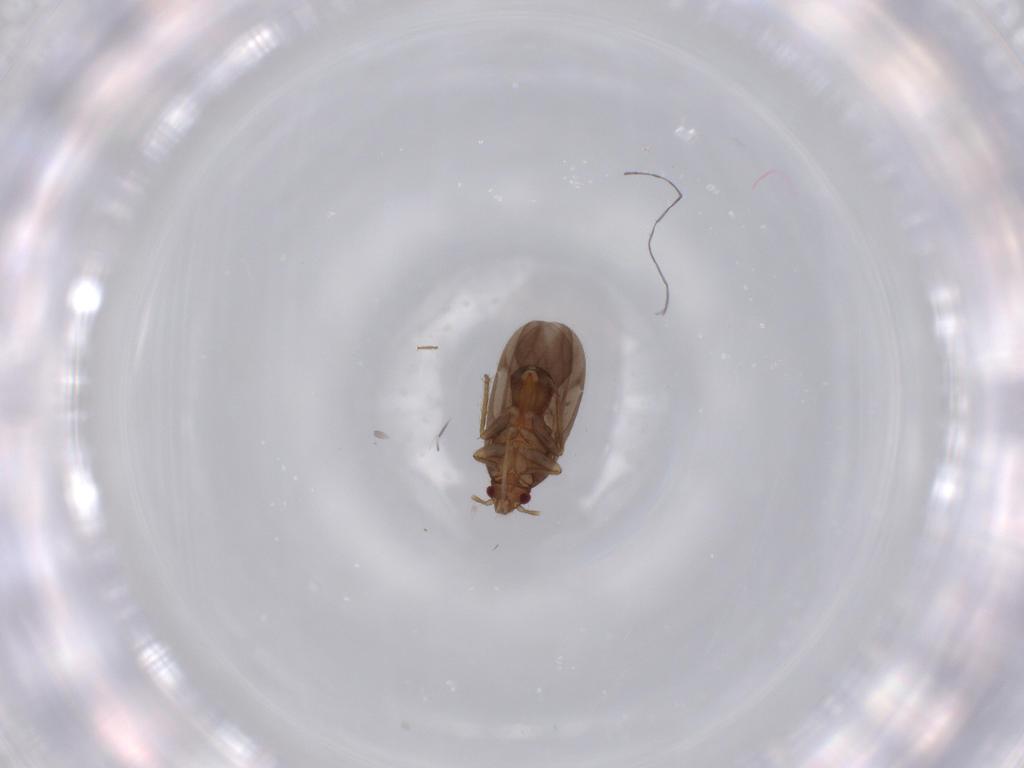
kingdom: Animalia
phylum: Arthropoda
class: Insecta
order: Hemiptera
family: Ceratocombidae
